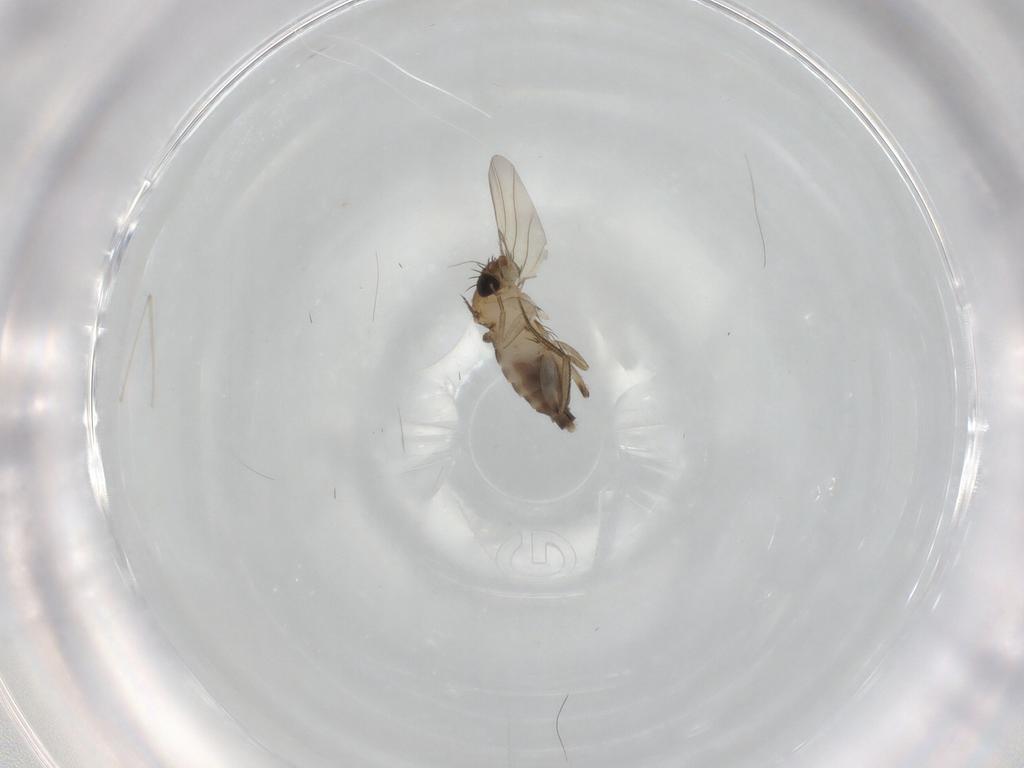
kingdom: Animalia
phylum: Arthropoda
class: Insecta
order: Diptera
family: Phoridae
